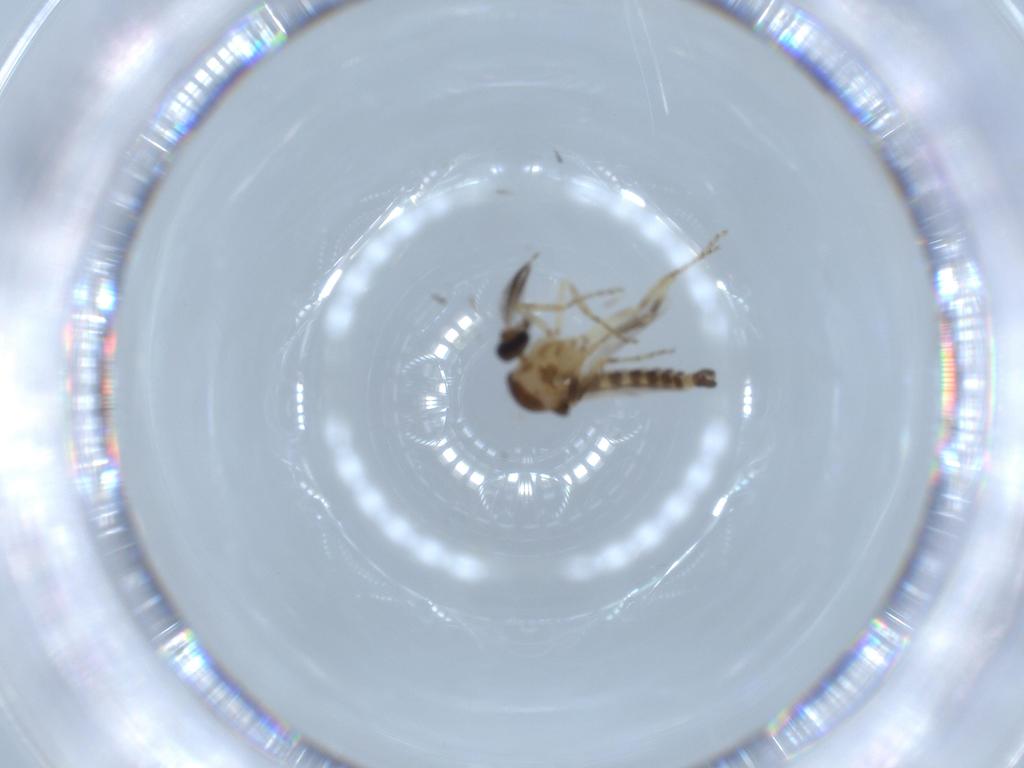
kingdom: Animalia
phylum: Arthropoda
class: Insecta
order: Diptera
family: Ceratopogonidae
